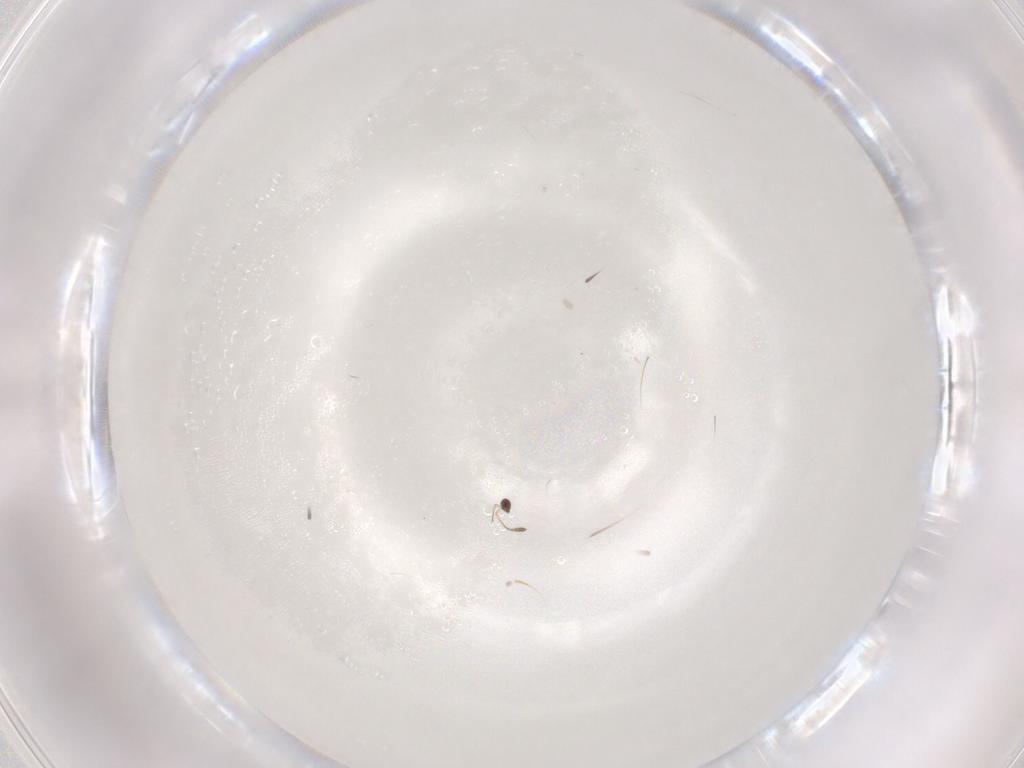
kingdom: Animalia
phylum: Arthropoda
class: Insecta
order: Hymenoptera
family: Mymaridae
